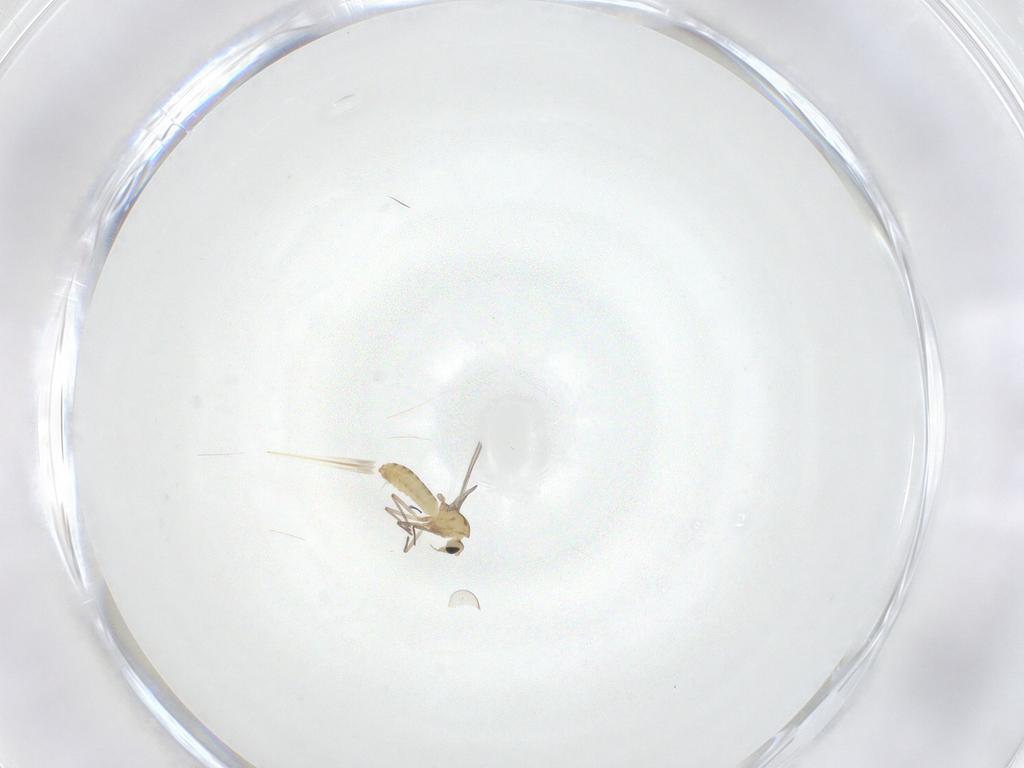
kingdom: Animalia
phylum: Arthropoda
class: Insecta
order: Diptera
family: Chironomidae
